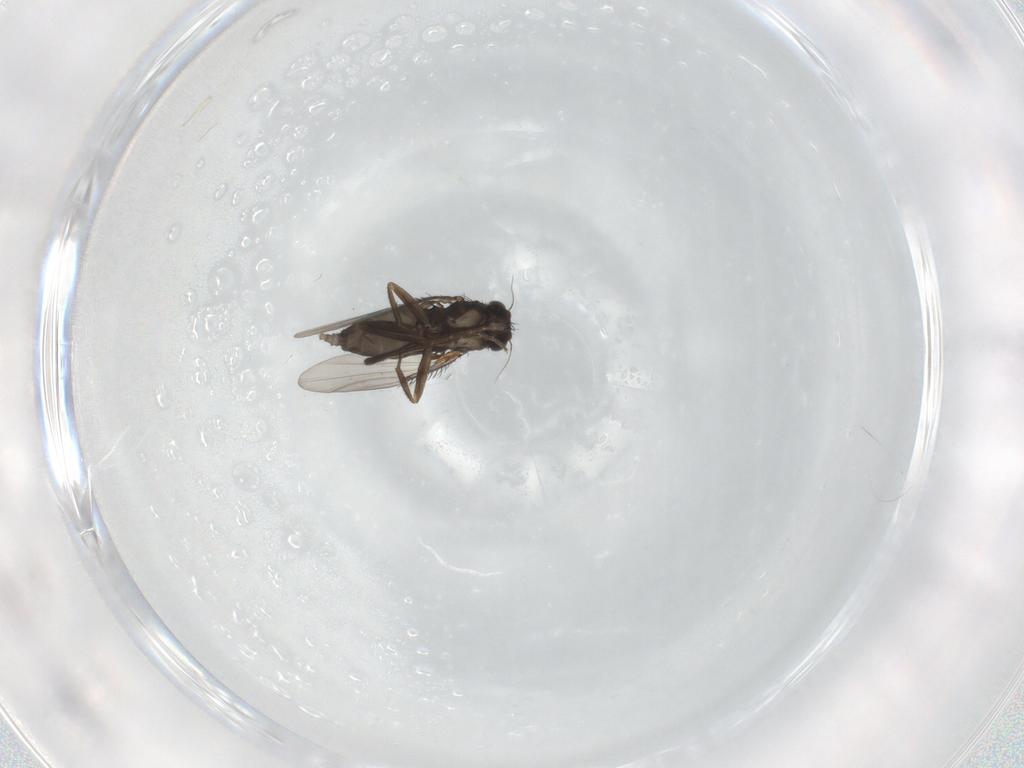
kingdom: Animalia
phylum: Arthropoda
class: Insecta
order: Diptera
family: Phoridae
